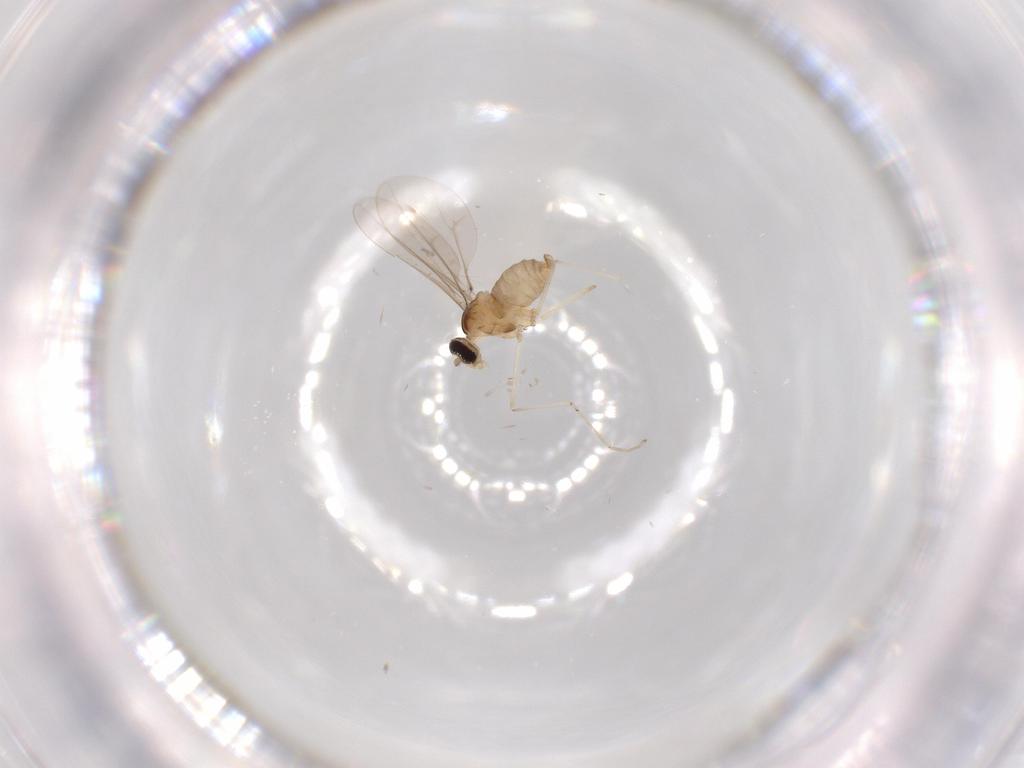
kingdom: Animalia
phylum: Arthropoda
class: Insecta
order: Diptera
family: Cecidomyiidae
